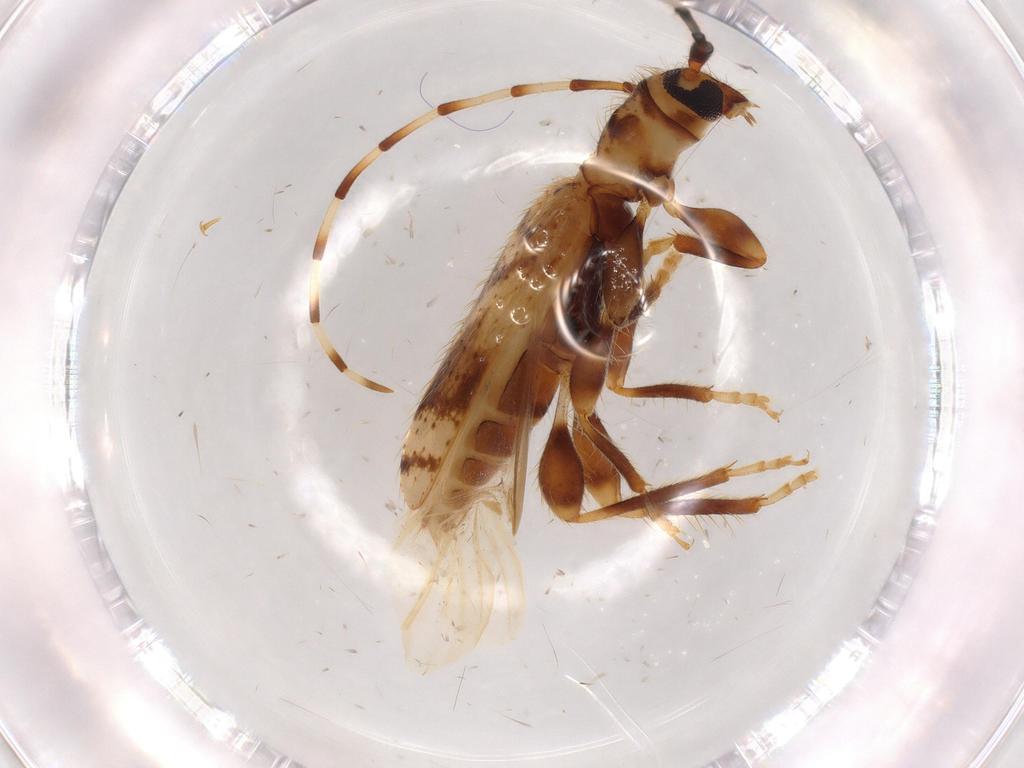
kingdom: Animalia
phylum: Arthropoda
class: Insecta
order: Coleoptera
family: Cerambycidae
